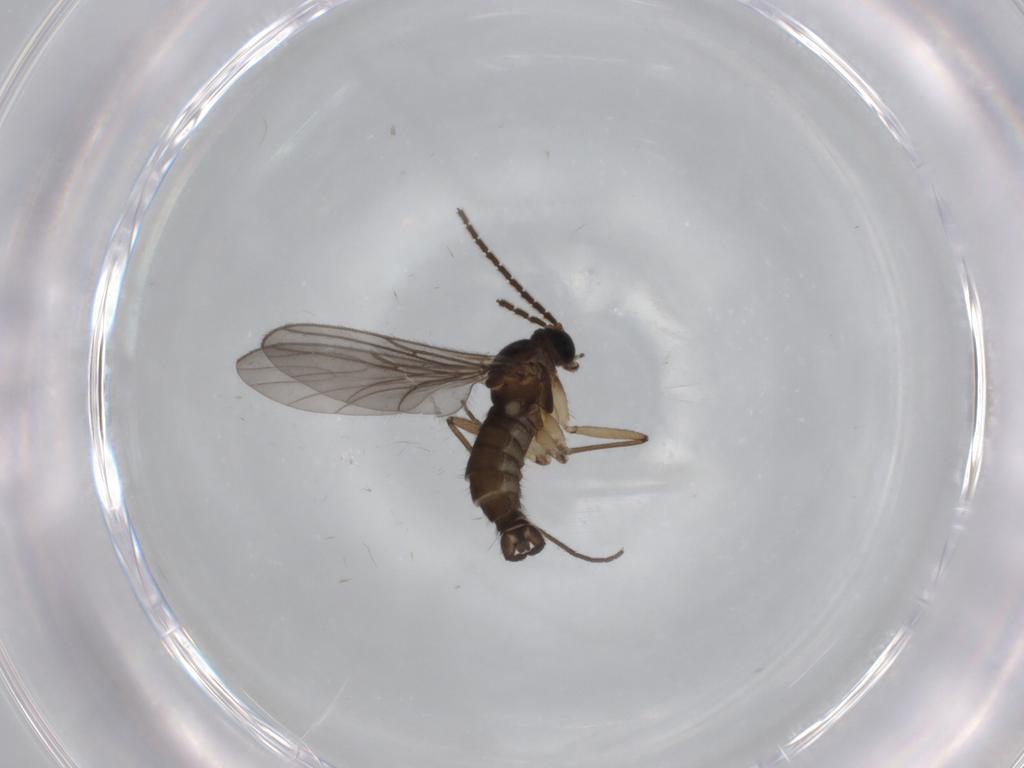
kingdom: Animalia
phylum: Arthropoda
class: Insecta
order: Diptera
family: Sciaridae
